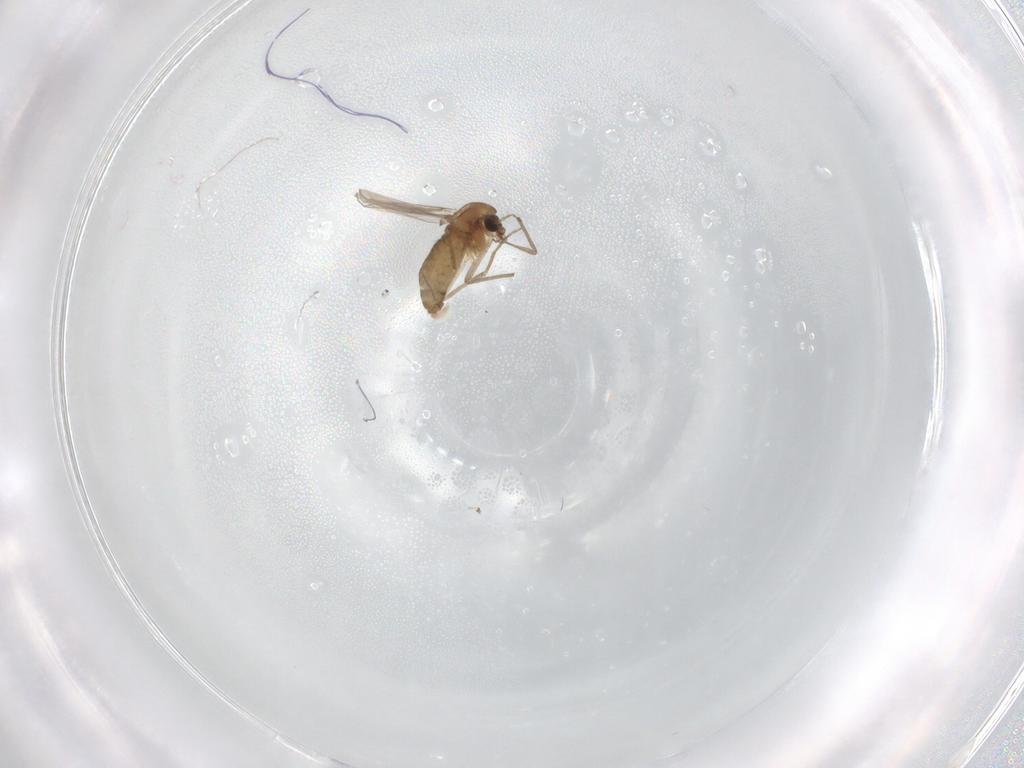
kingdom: Animalia
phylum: Arthropoda
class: Insecta
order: Diptera
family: Chironomidae
